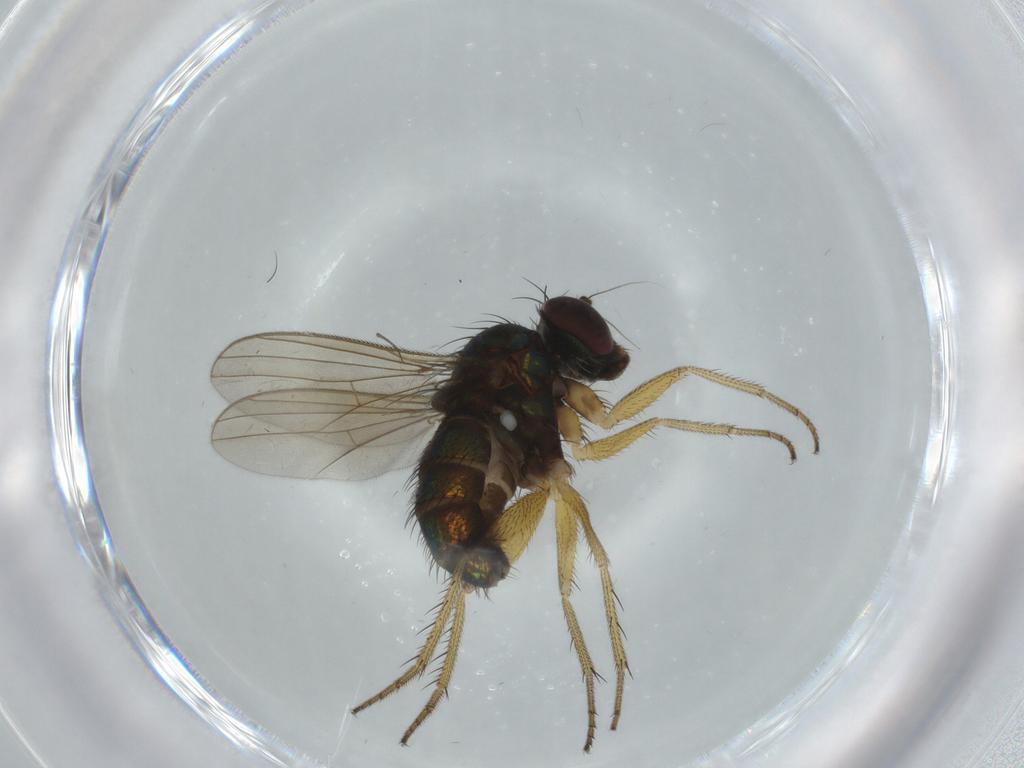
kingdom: Animalia
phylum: Arthropoda
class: Insecta
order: Diptera
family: Dolichopodidae
